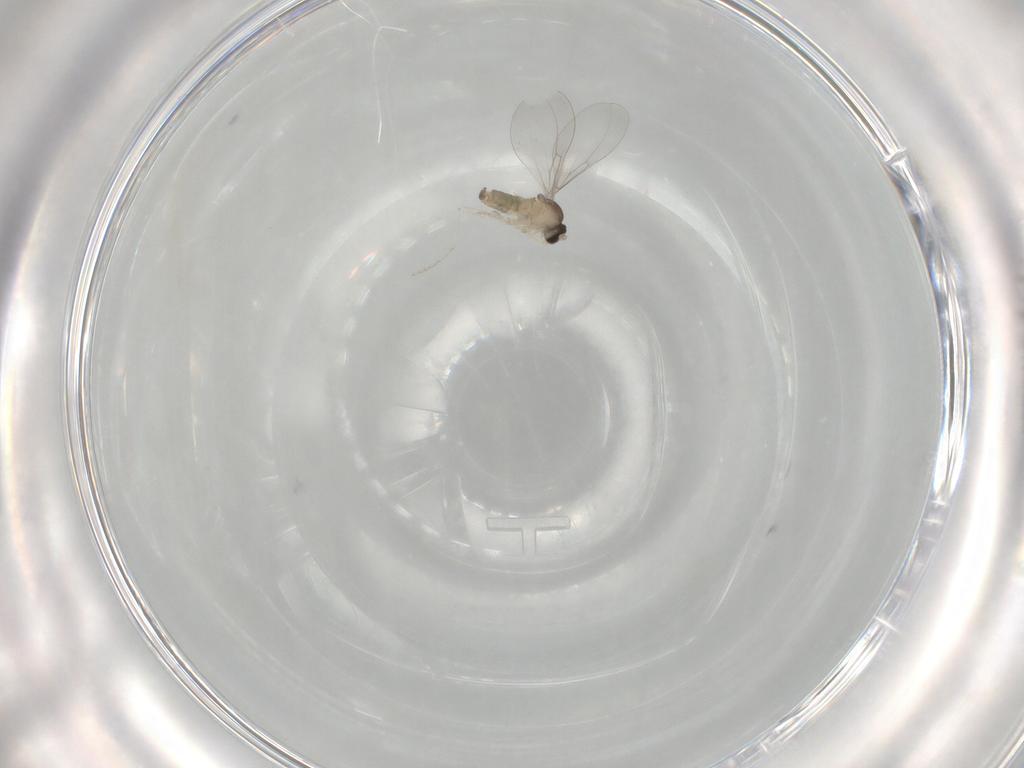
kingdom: Animalia
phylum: Arthropoda
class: Insecta
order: Diptera
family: Cecidomyiidae
